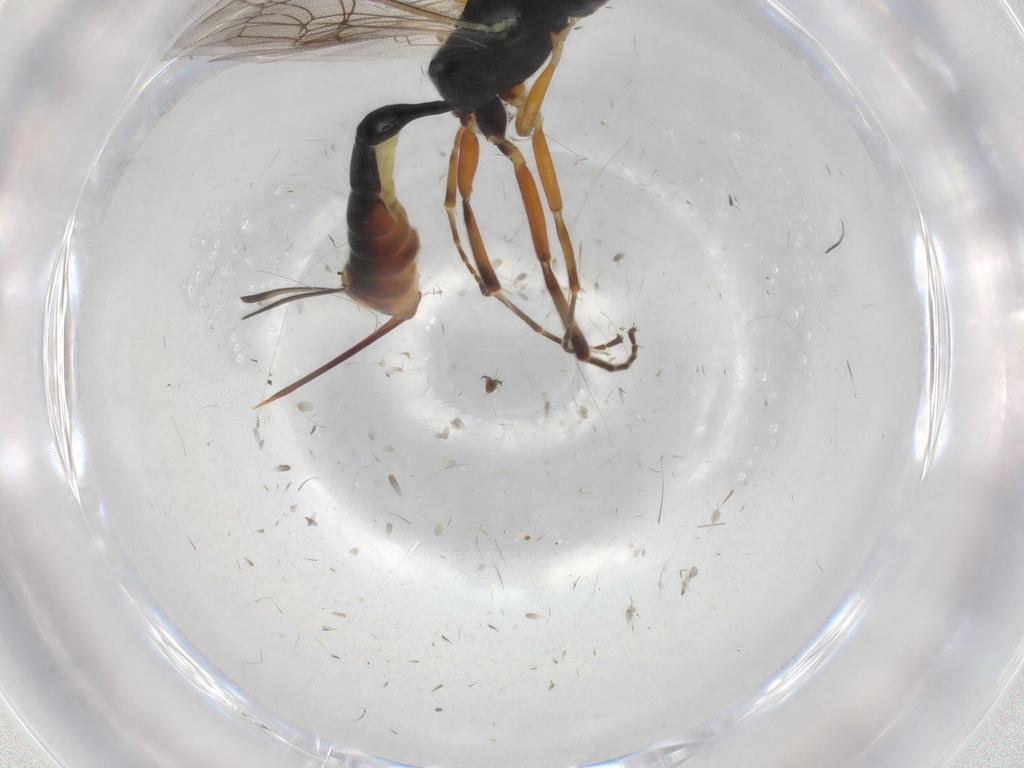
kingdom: Animalia
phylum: Arthropoda
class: Insecta
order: Hymenoptera
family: Ichneumonidae
